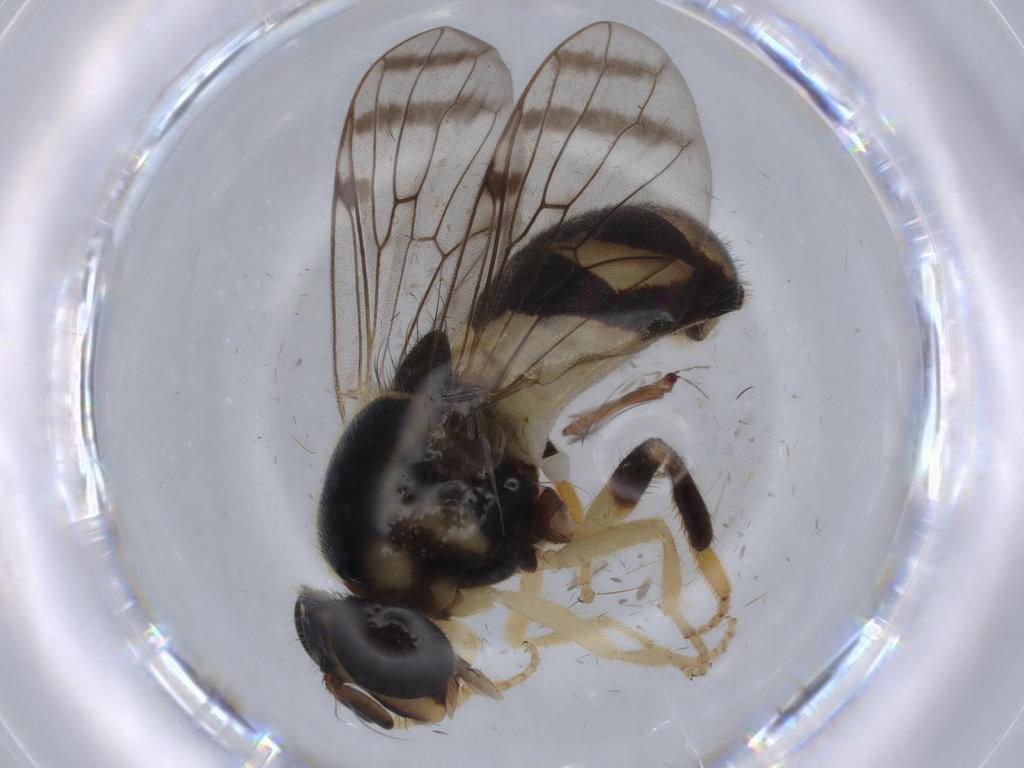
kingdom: Animalia
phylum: Arthropoda
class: Insecta
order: Diptera
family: Syrphidae
